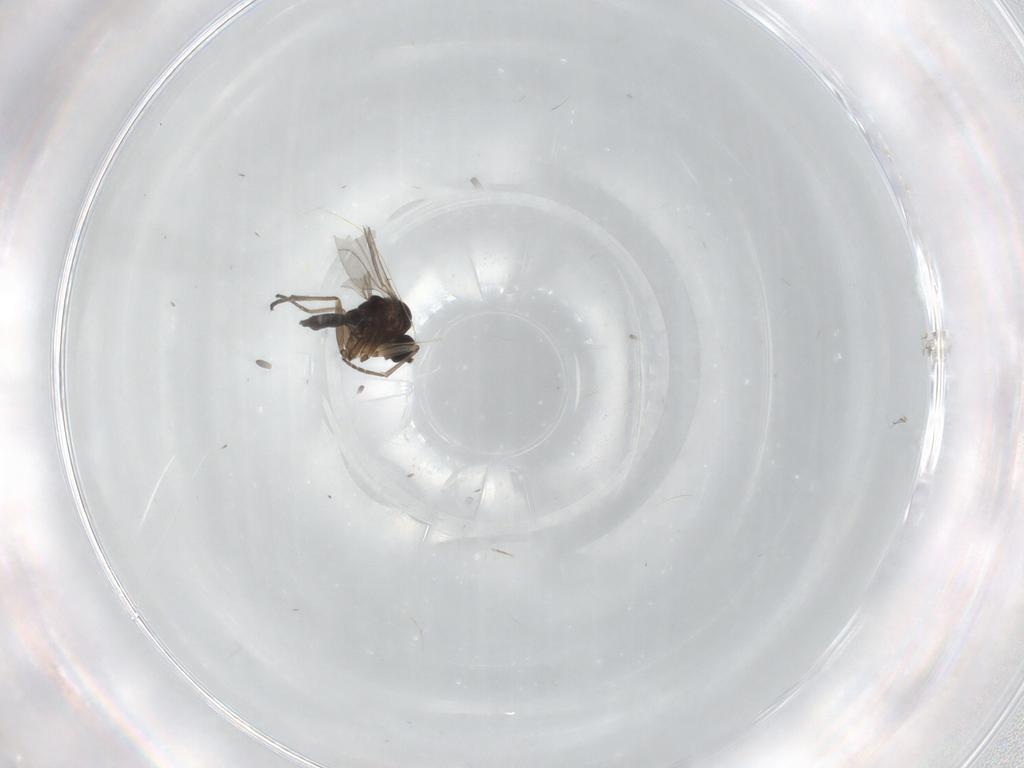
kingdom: Animalia
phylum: Arthropoda
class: Insecta
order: Diptera
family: Sciaridae
